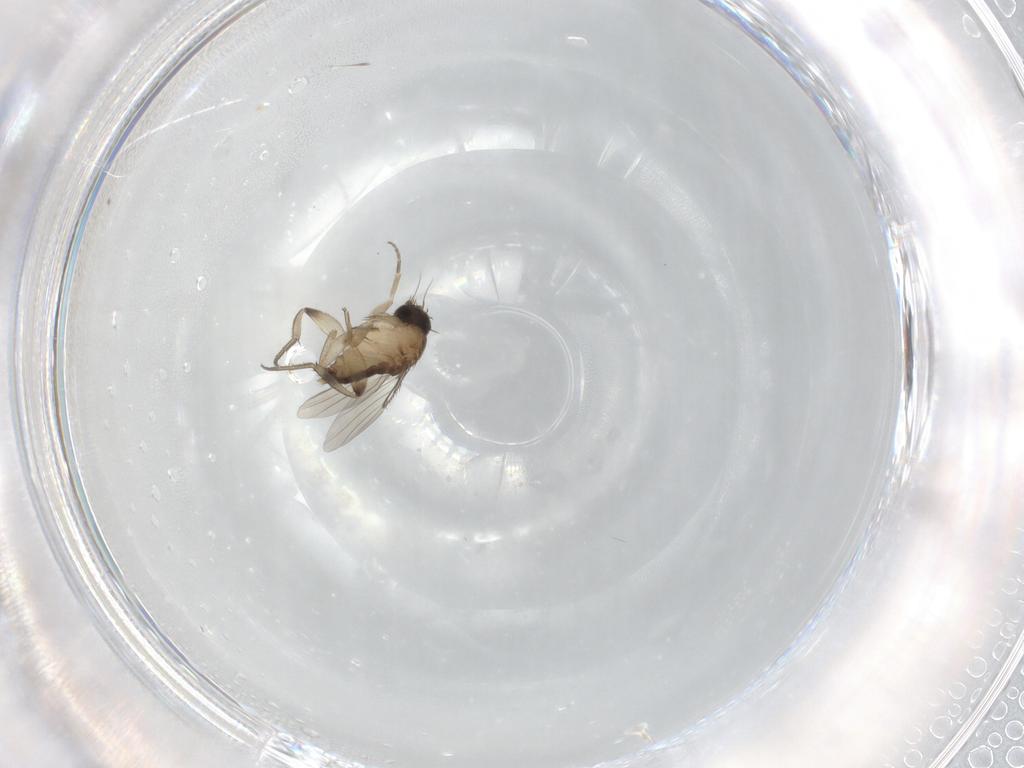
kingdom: Animalia
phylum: Arthropoda
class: Insecta
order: Diptera
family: Phoridae
